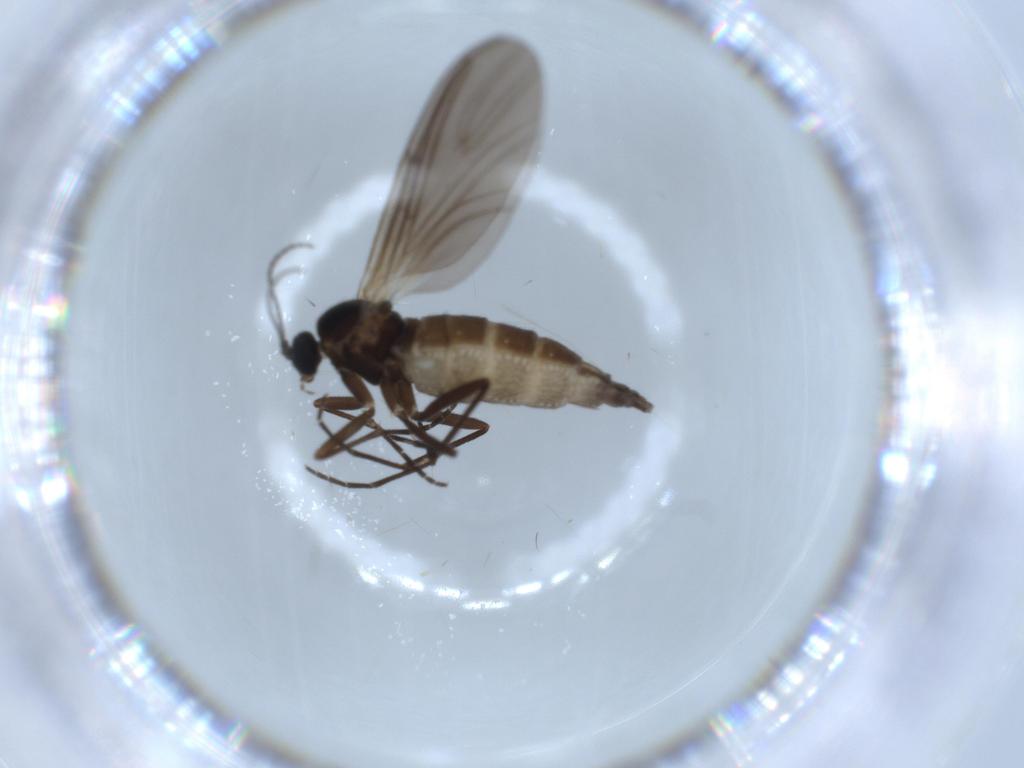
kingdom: Animalia
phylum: Arthropoda
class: Insecta
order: Diptera
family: Sciaridae
